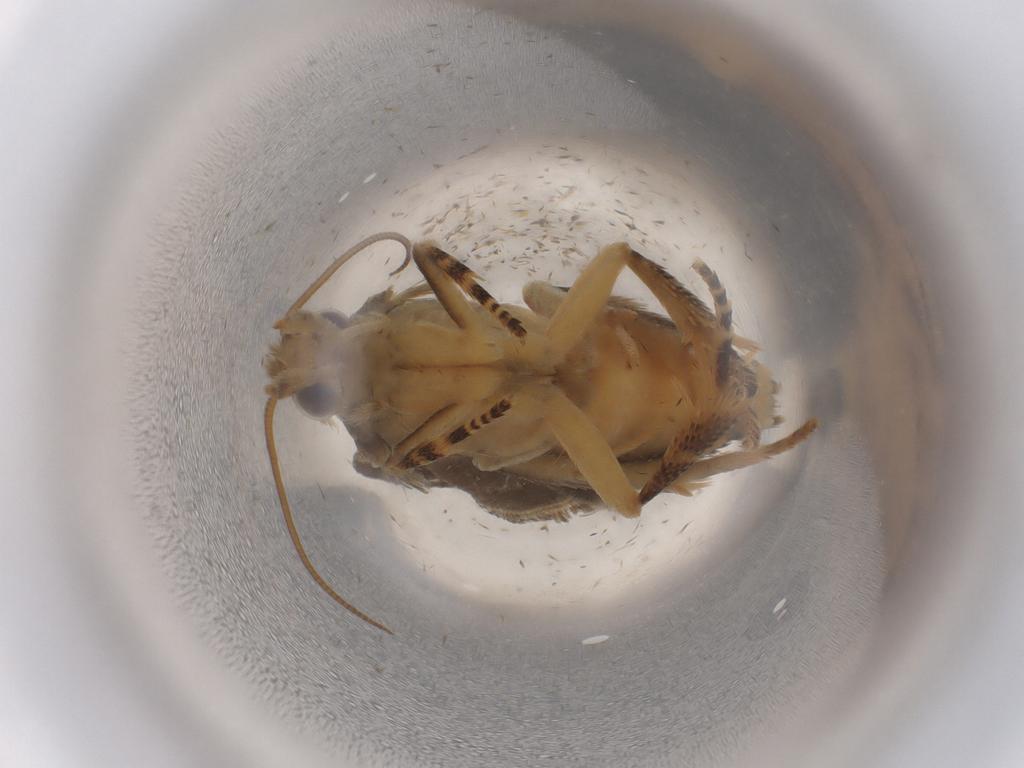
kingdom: Animalia
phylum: Arthropoda
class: Insecta
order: Lepidoptera
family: Tortricidae
